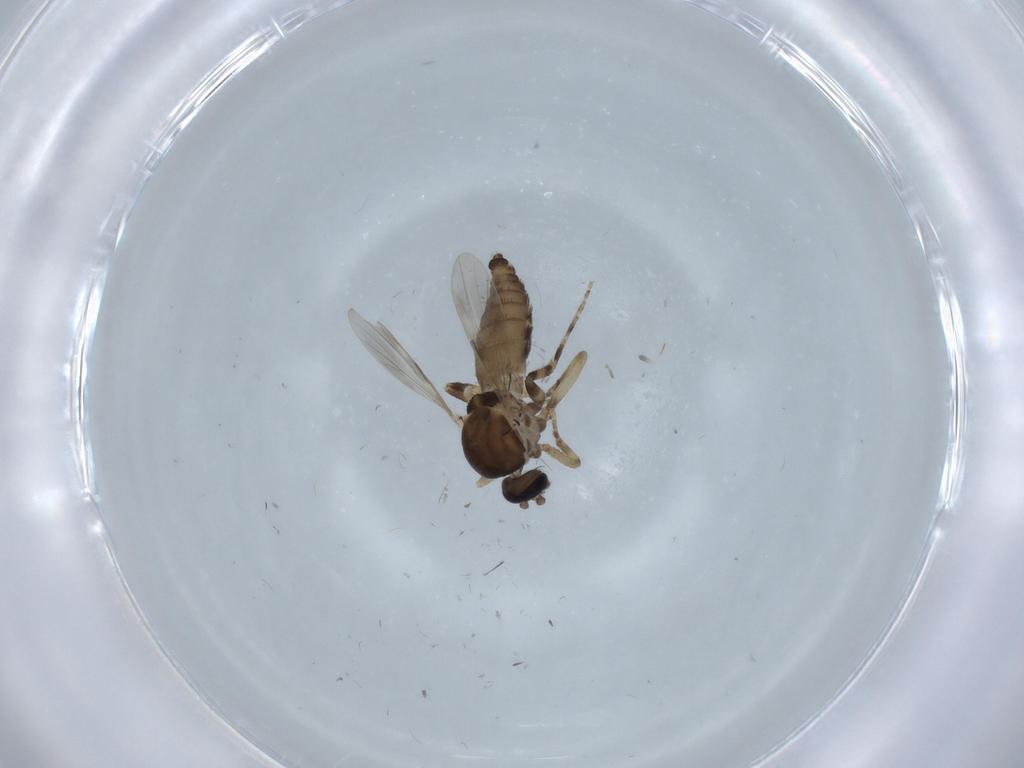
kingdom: Animalia
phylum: Arthropoda
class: Insecta
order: Diptera
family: Ceratopogonidae
